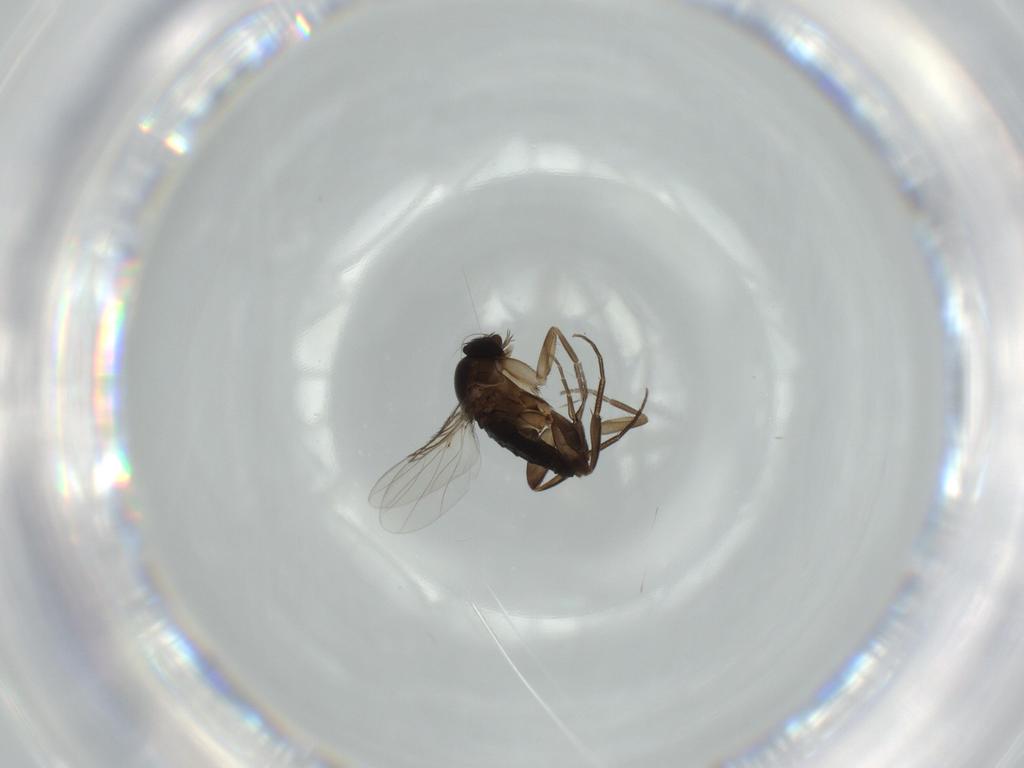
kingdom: Animalia
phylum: Arthropoda
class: Insecta
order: Diptera
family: Phoridae
